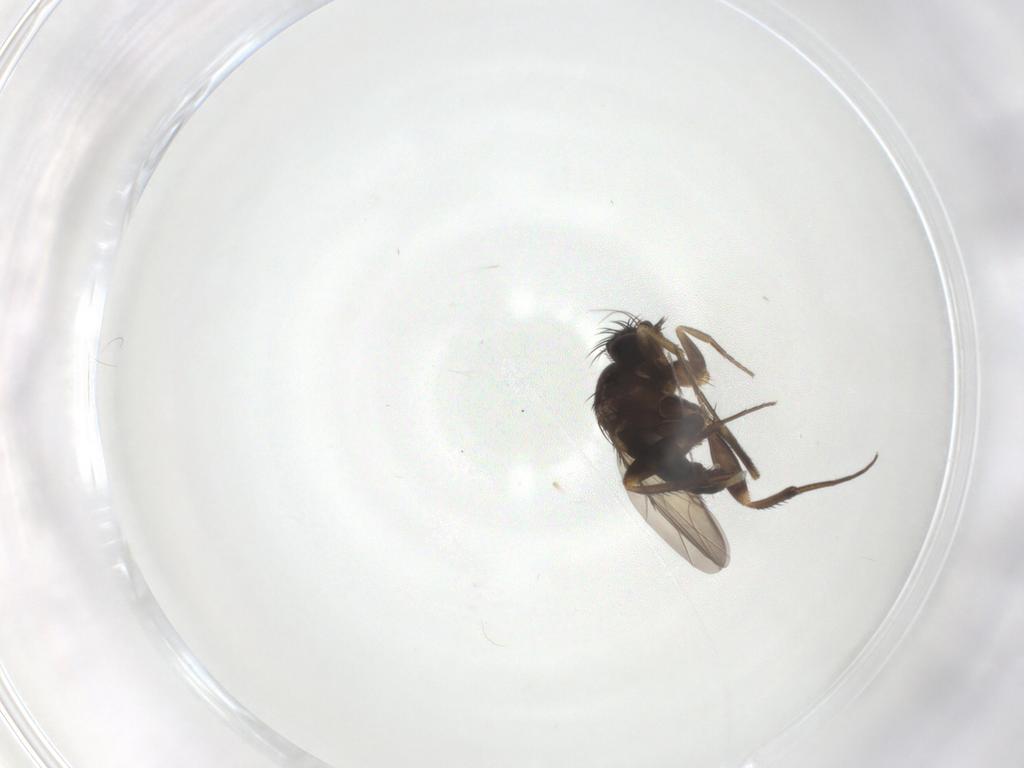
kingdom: Animalia
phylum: Arthropoda
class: Insecta
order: Diptera
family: Phoridae
